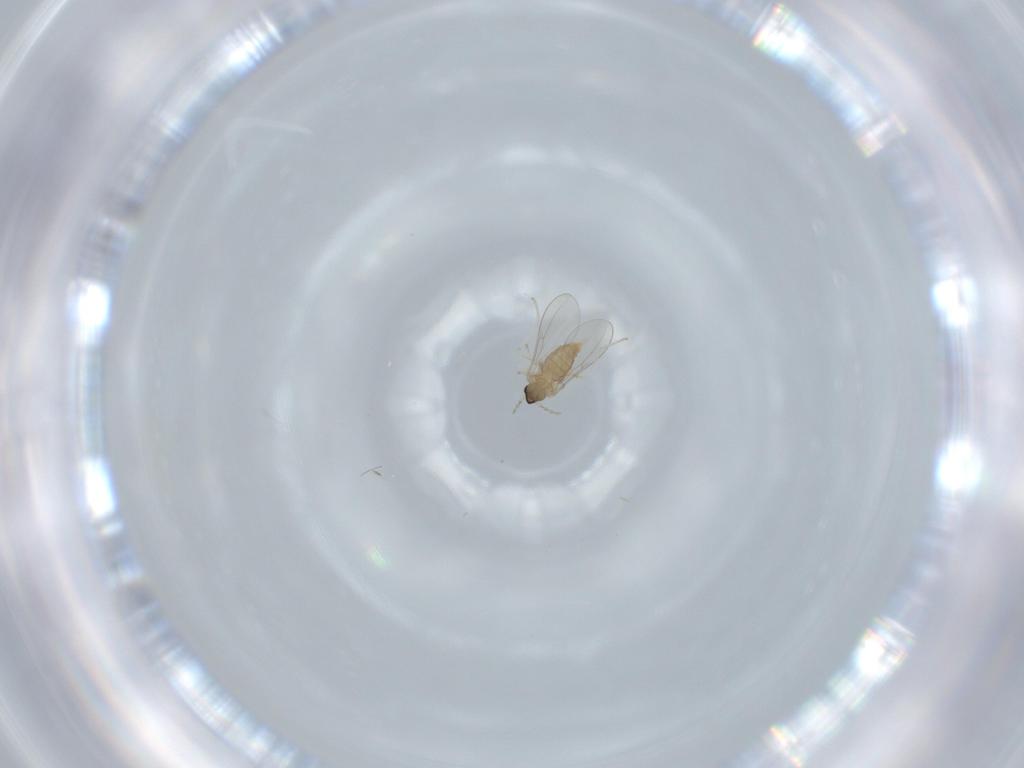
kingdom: Animalia
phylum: Arthropoda
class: Insecta
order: Diptera
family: Cecidomyiidae
